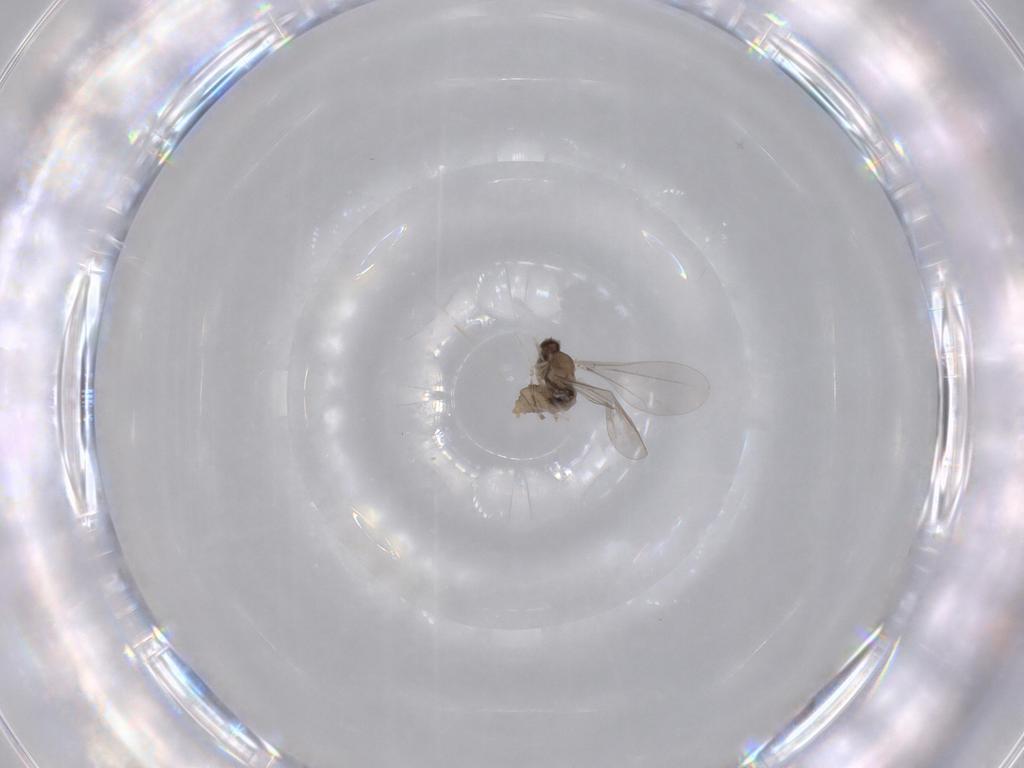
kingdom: Animalia
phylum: Arthropoda
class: Insecta
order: Diptera
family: Cecidomyiidae
